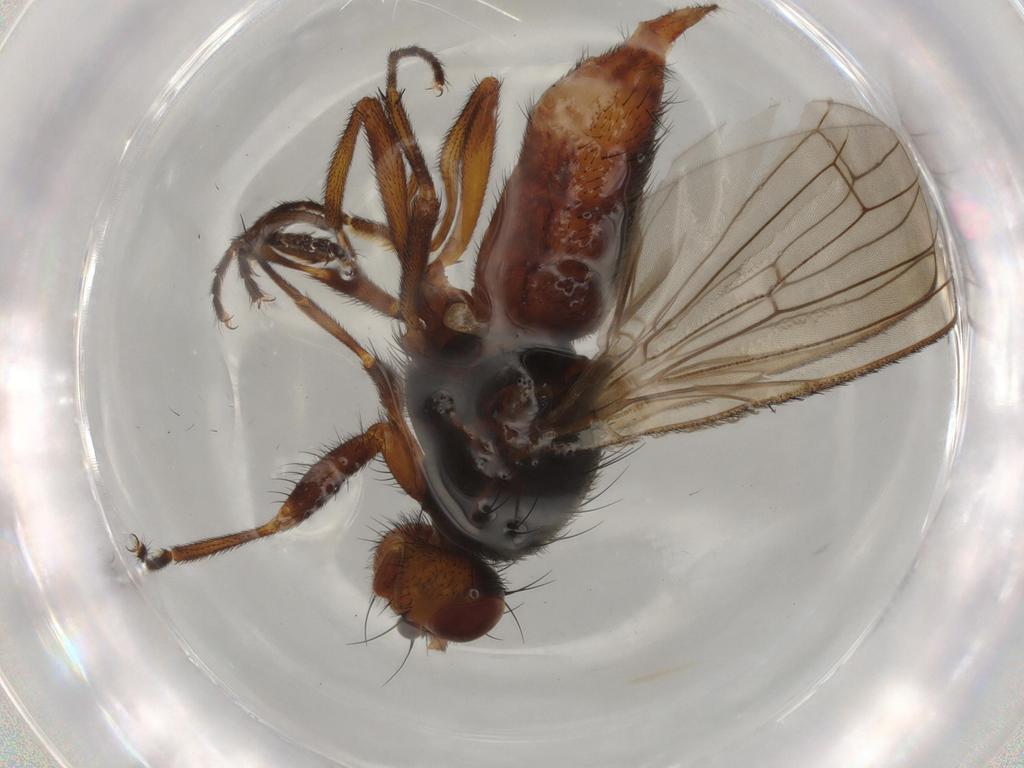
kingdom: Animalia
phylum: Arthropoda
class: Insecta
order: Diptera
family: Heleomyzidae
